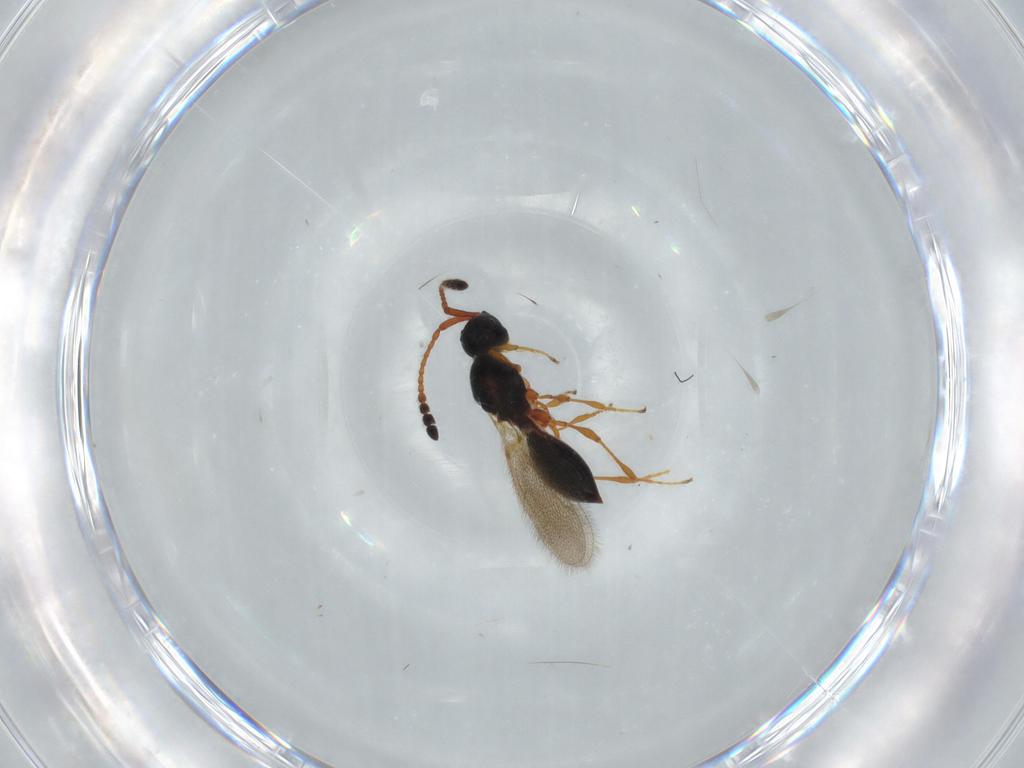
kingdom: Animalia
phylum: Arthropoda
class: Insecta
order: Hymenoptera
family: Diapriidae
